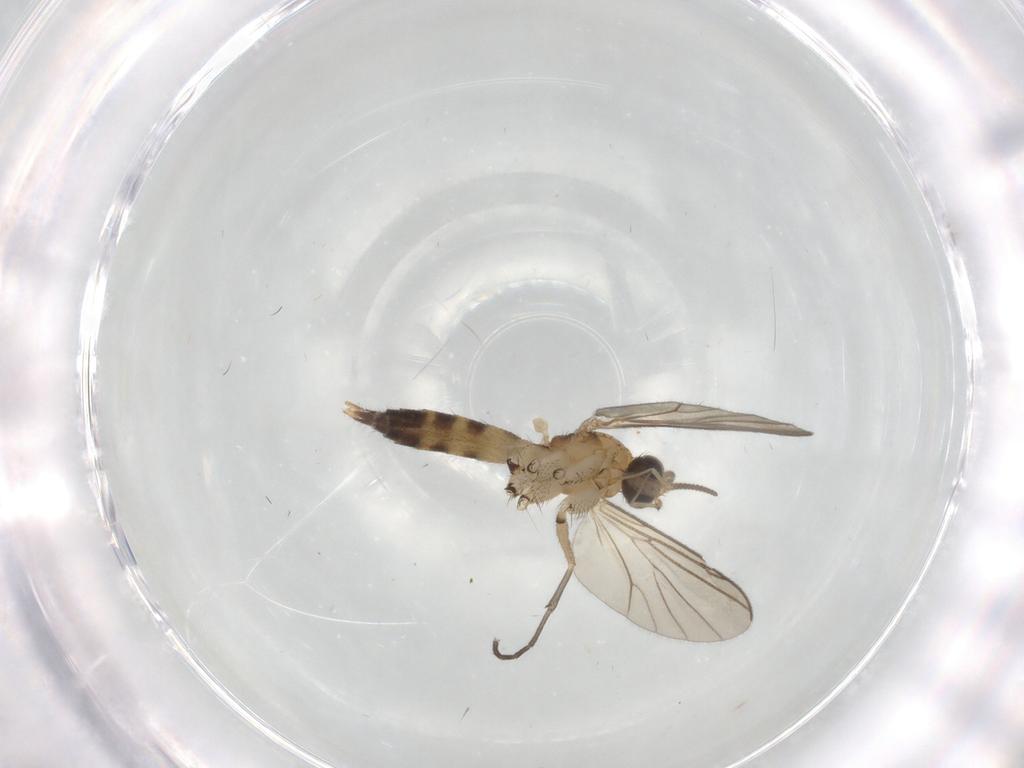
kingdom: Animalia
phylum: Arthropoda
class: Insecta
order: Diptera
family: Tipulidae
